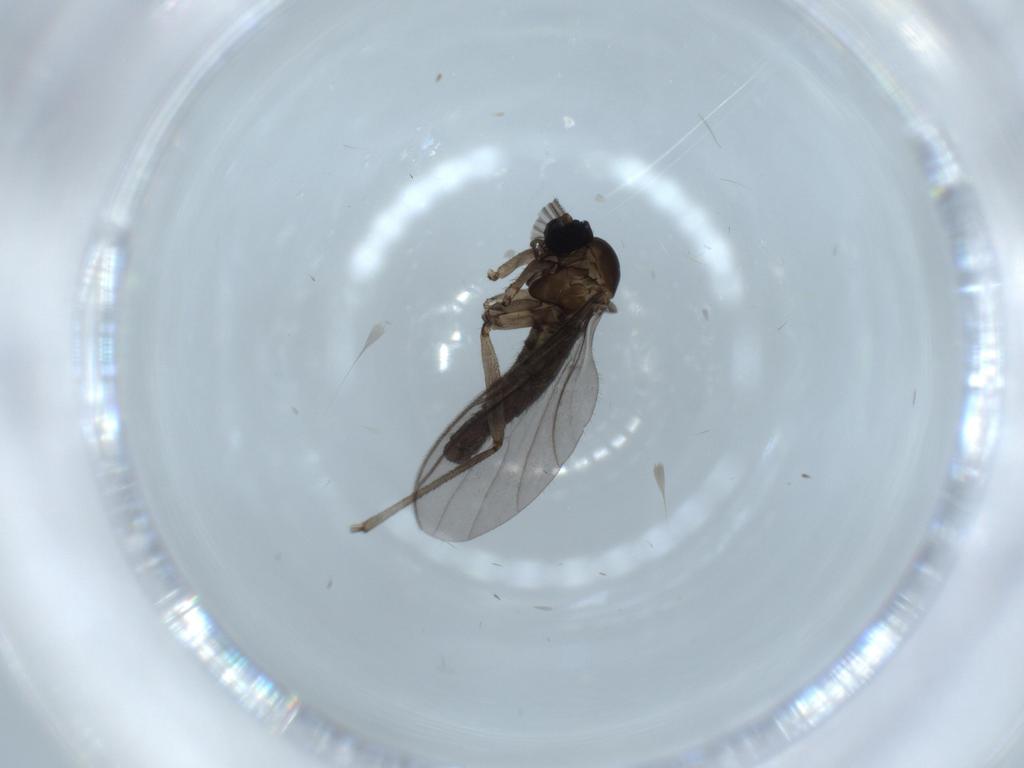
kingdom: Animalia
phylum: Arthropoda
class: Insecta
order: Diptera
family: Sciaridae
